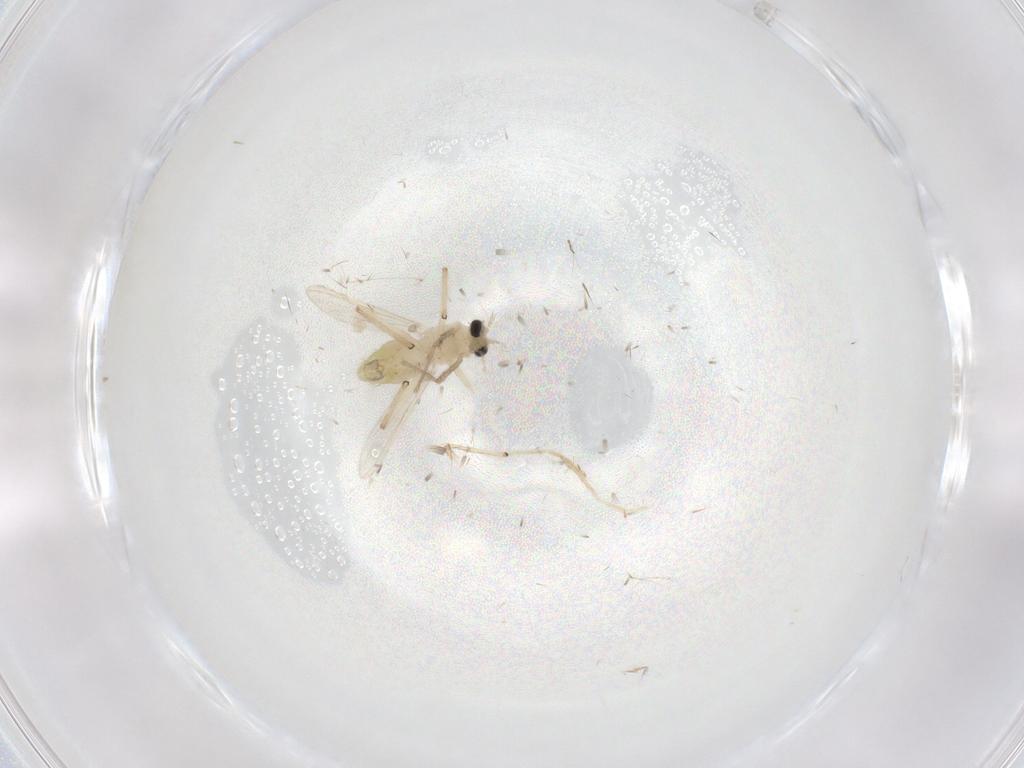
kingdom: Animalia
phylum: Arthropoda
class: Insecta
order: Diptera
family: Chironomidae
